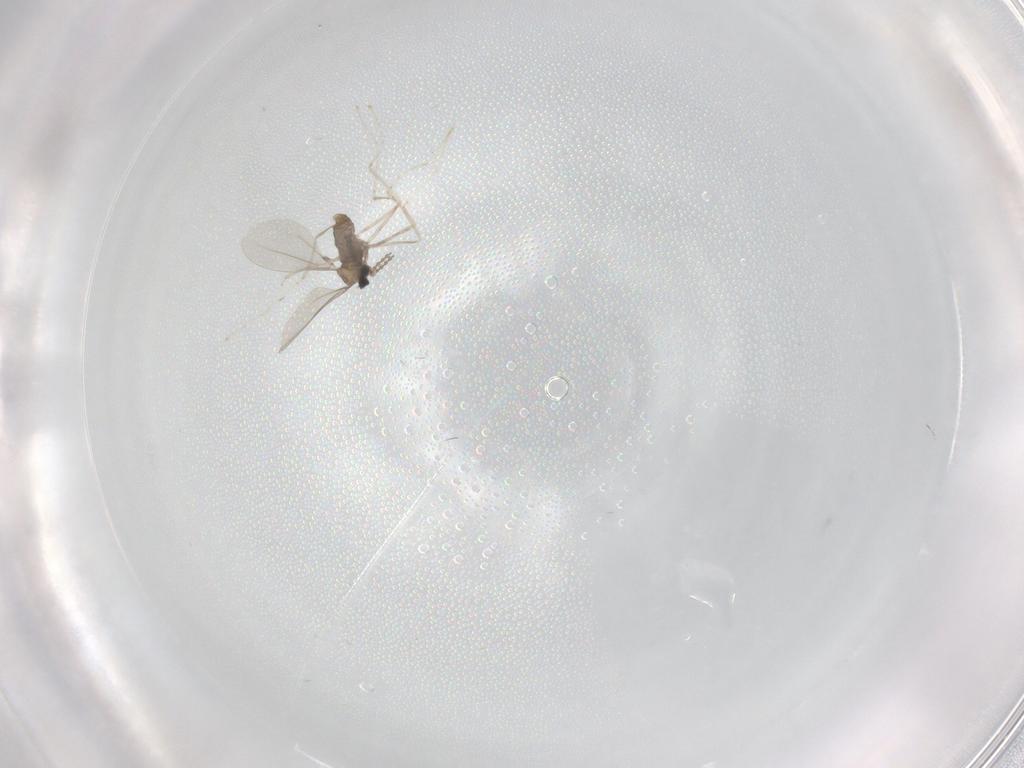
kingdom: Animalia
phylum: Arthropoda
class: Insecta
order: Diptera
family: Cecidomyiidae
